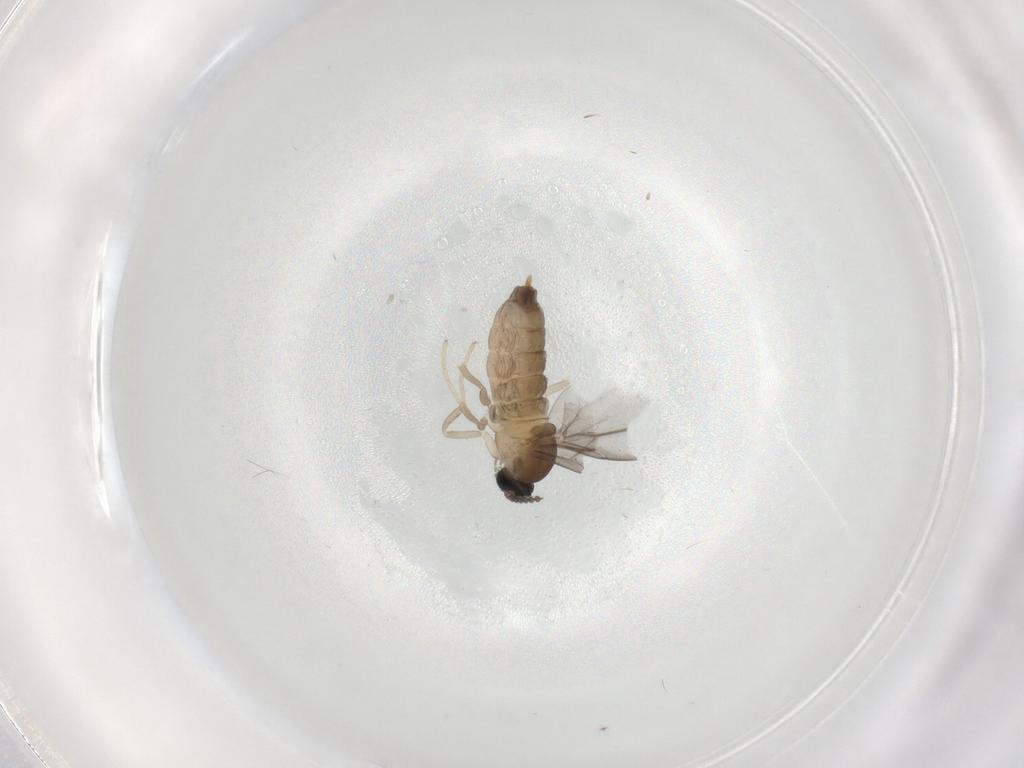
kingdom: Animalia
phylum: Arthropoda
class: Insecta
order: Diptera
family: Cecidomyiidae
